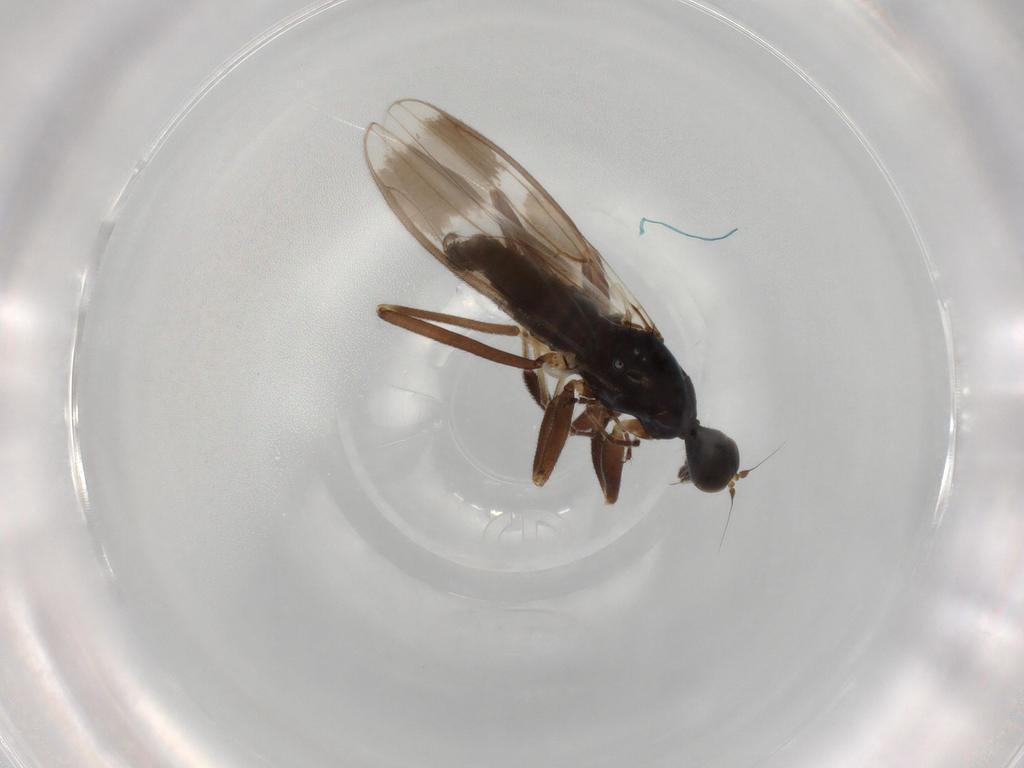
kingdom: Animalia
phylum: Arthropoda
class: Insecta
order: Diptera
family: Hybotidae
